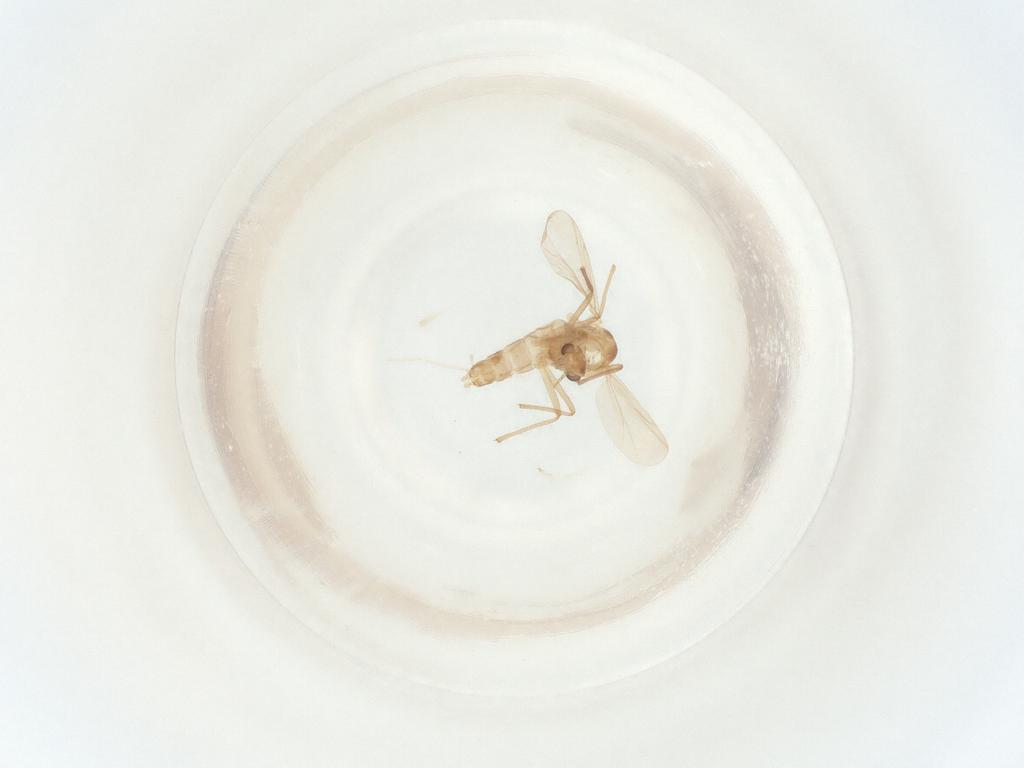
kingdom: Animalia
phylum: Arthropoda
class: Insecta
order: Diptera
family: Chironomidae
